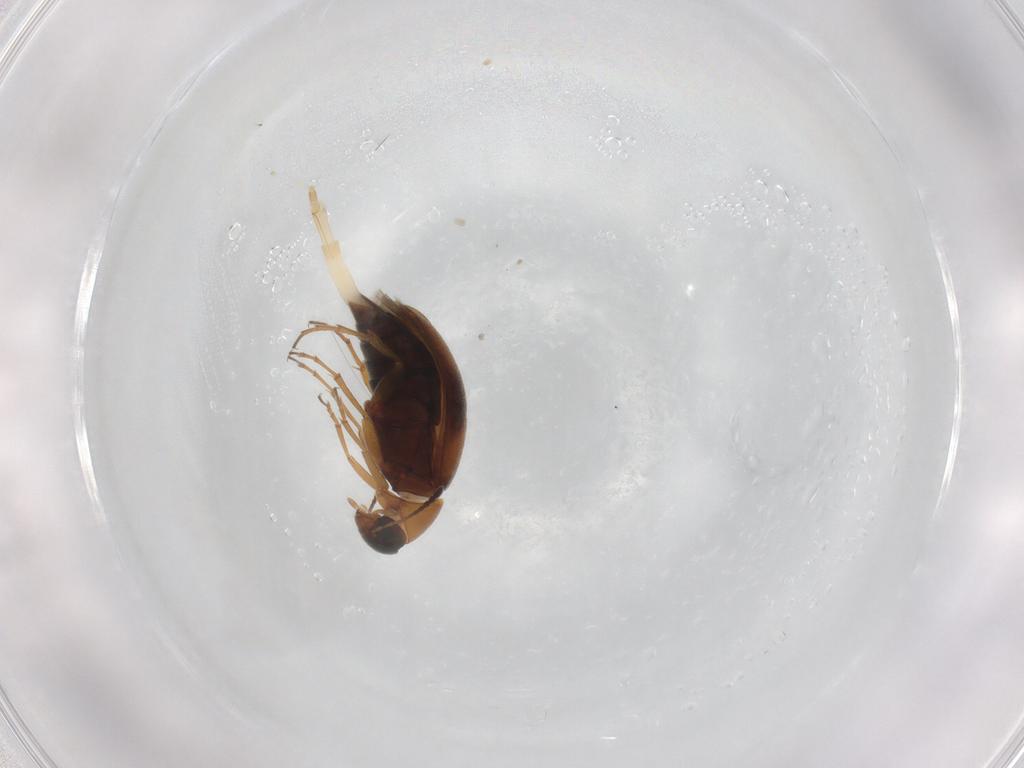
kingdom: Animalia
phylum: Arthropoda
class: Insecta
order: Coleoptera
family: Scraptiidae
